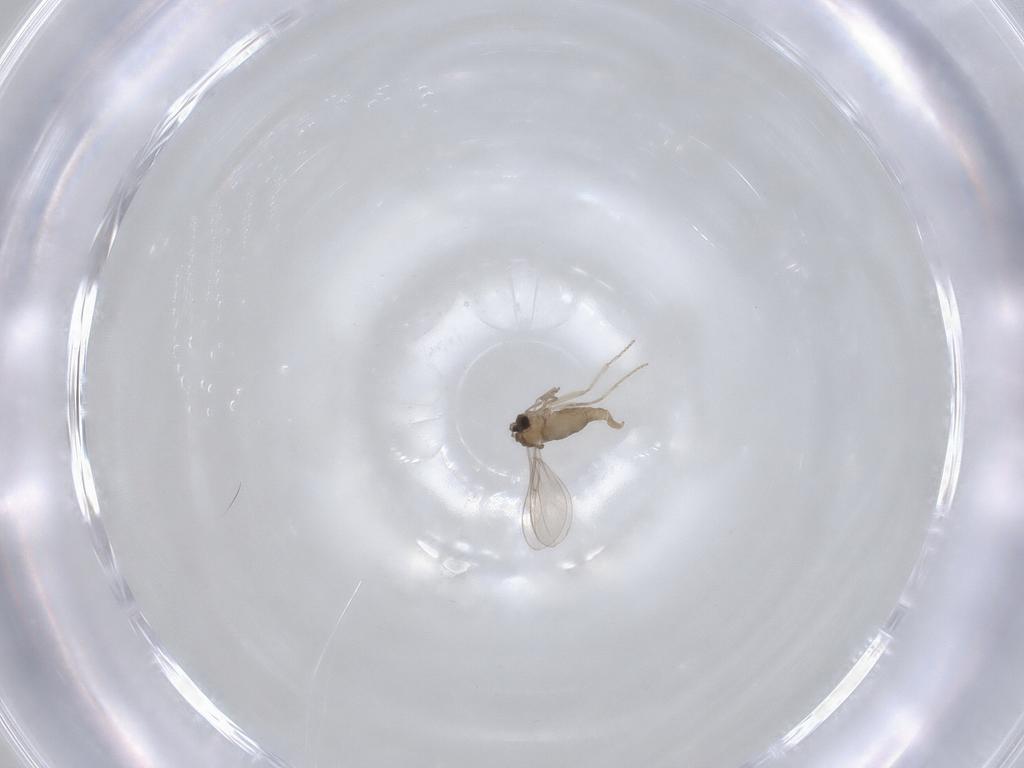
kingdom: Animalia
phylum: Arthropoda
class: Insecta
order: Diptera
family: Cecidomyiidae
